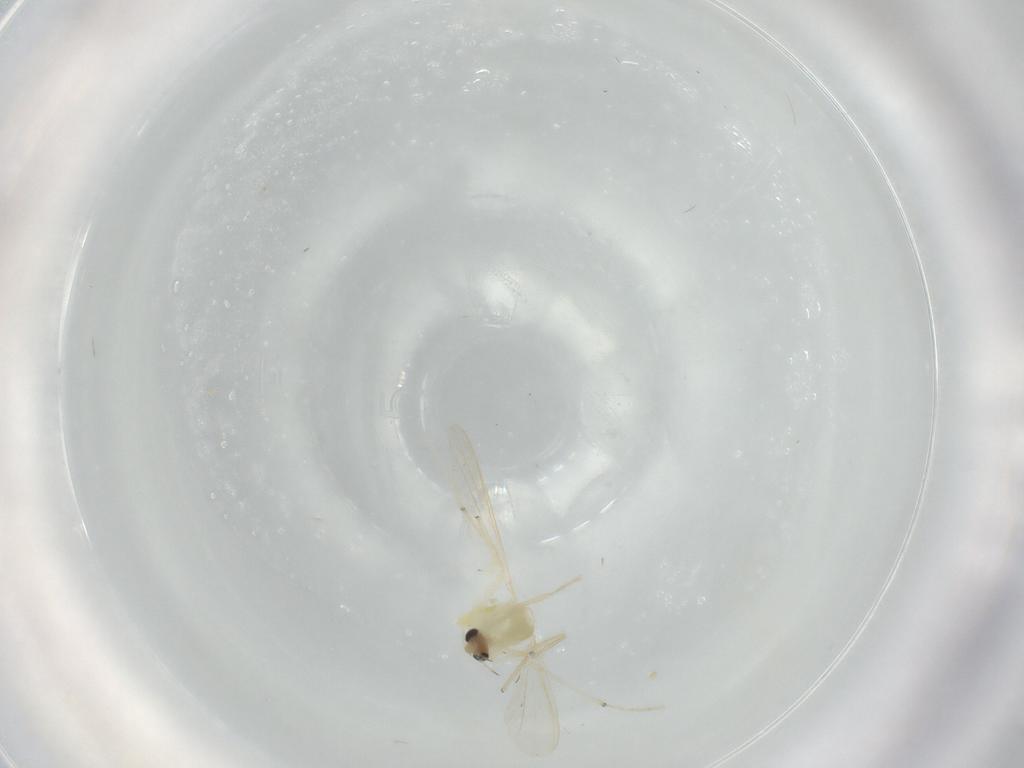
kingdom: Animalia
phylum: Arthropoda
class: Insecta
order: Diptera
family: Chironomidae
